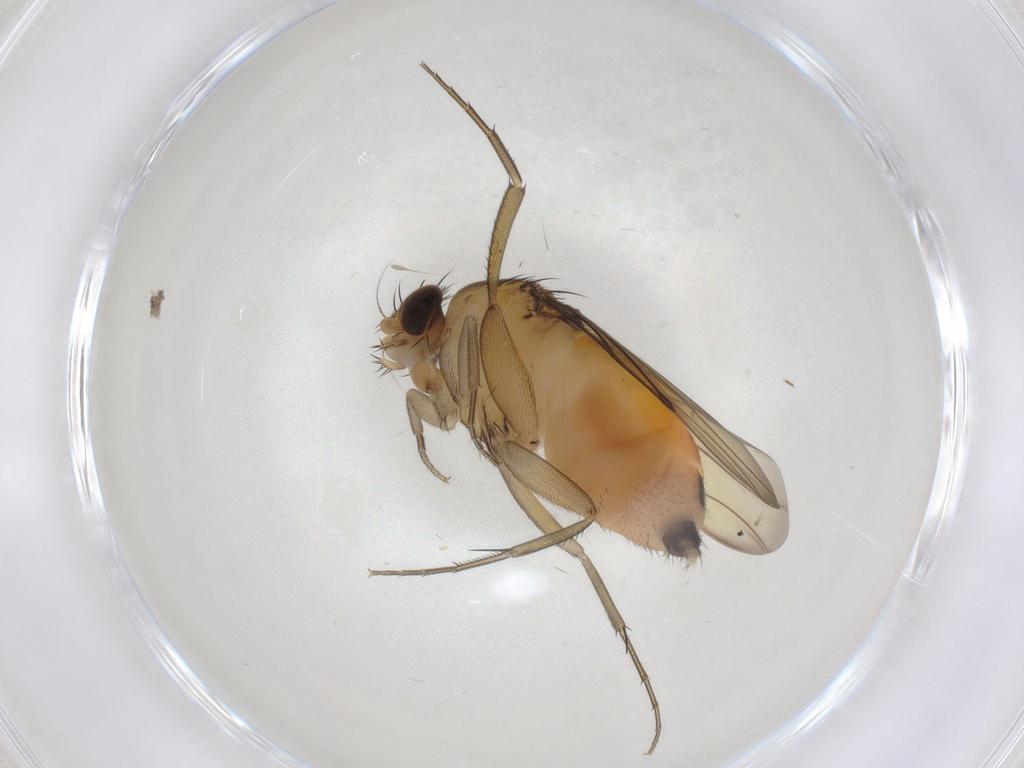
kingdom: Animalia
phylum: Arthropoda
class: Insecta
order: Diptera
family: Phoridae
